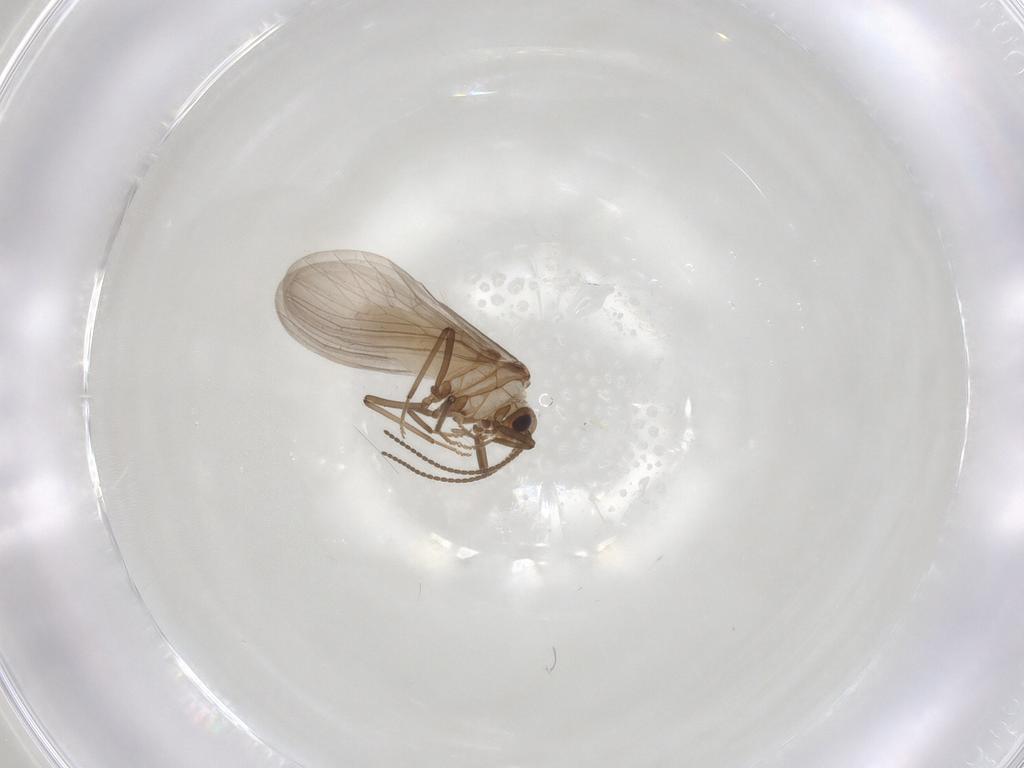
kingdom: Animalia
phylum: Arthropoda
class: Insecta
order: Neuroptera
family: Coniopterygidae
